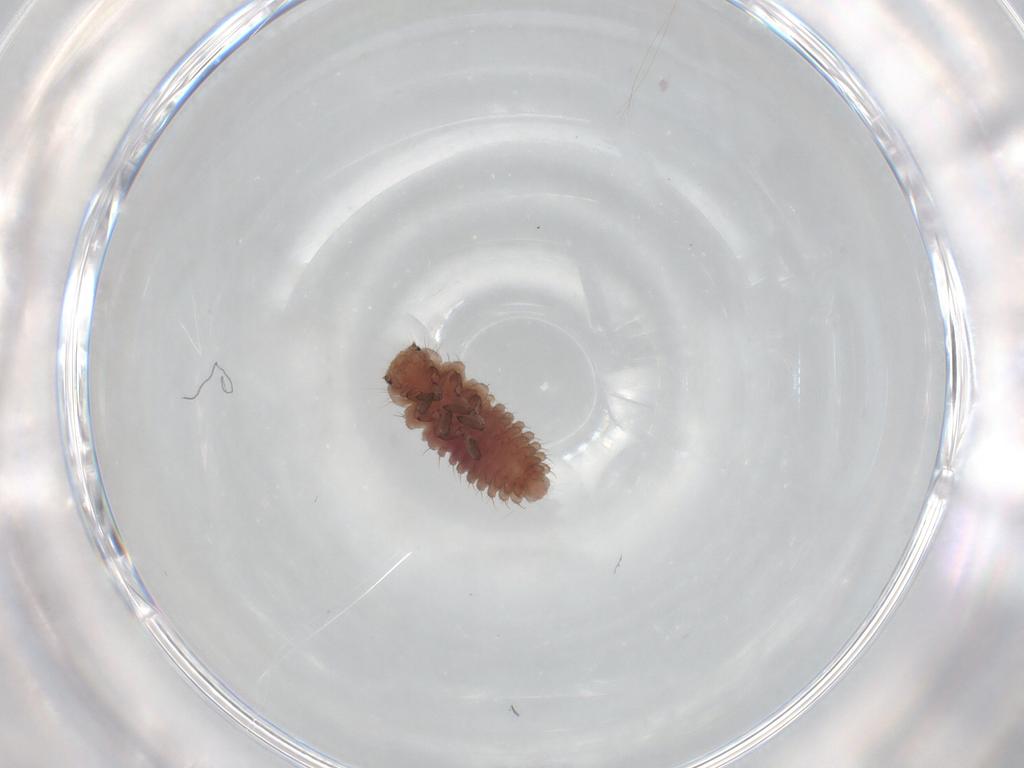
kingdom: Animalia
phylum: Arthropoda
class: Insecta
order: Coleoptera
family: Coccinellidae
